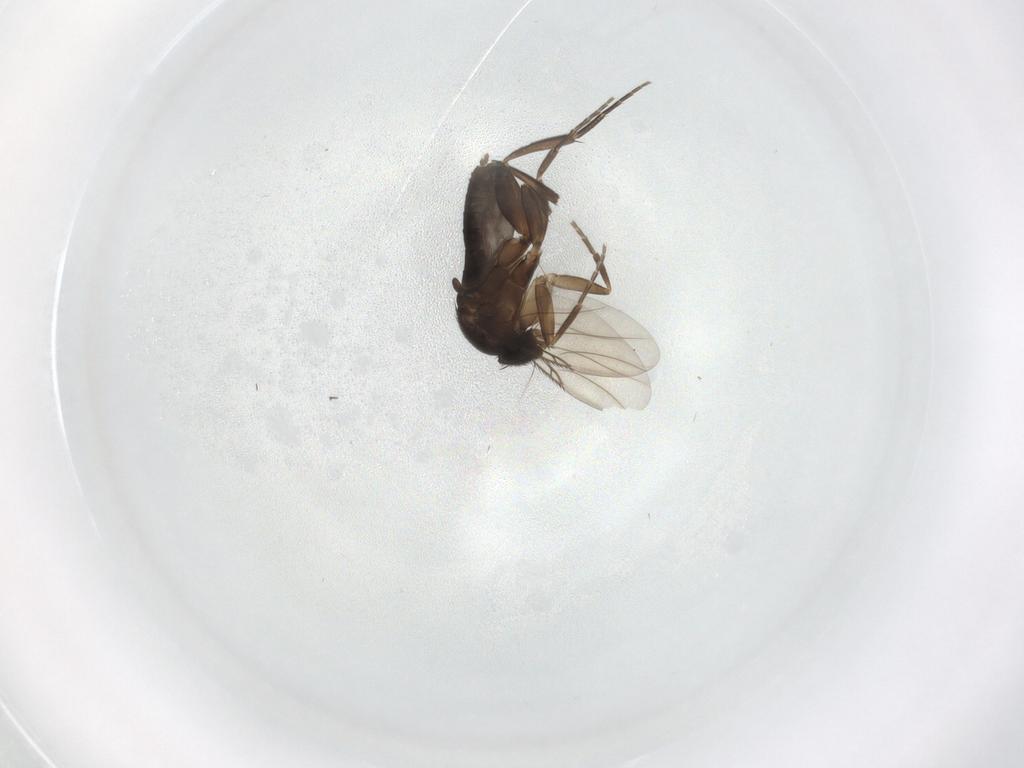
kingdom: Animalia
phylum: Arthropoda
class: Insecta
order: Diptera
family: Phoridae
